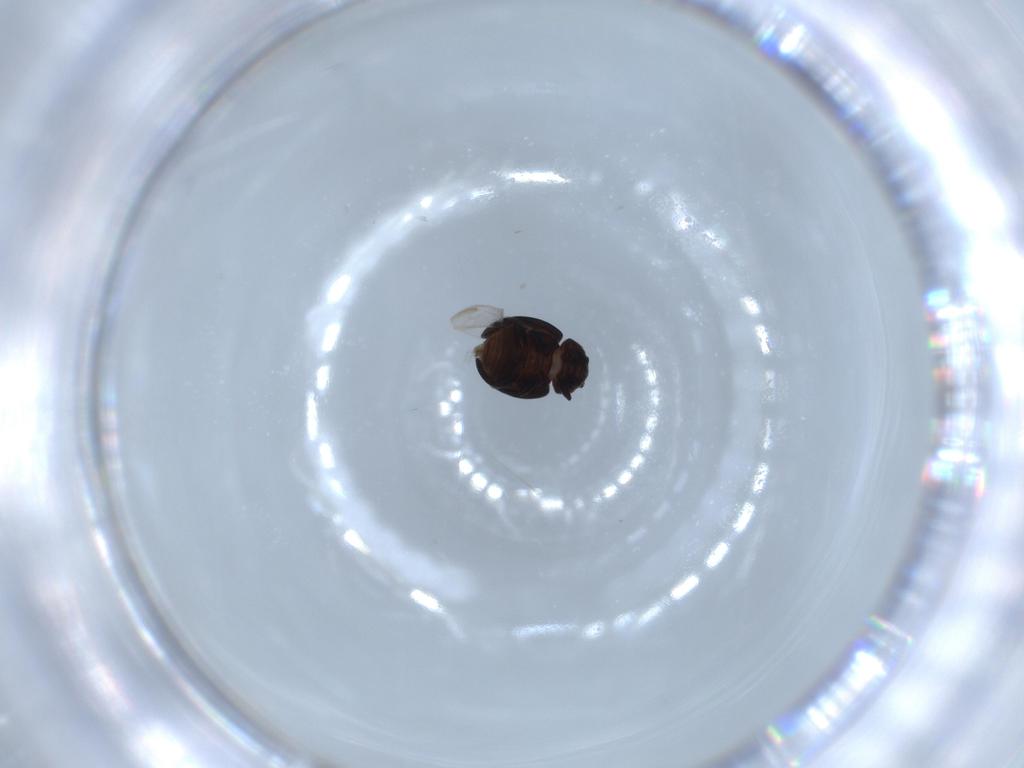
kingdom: Animalia
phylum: Arthropoda
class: Insecta
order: Coleoptera
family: Coccinellidae
